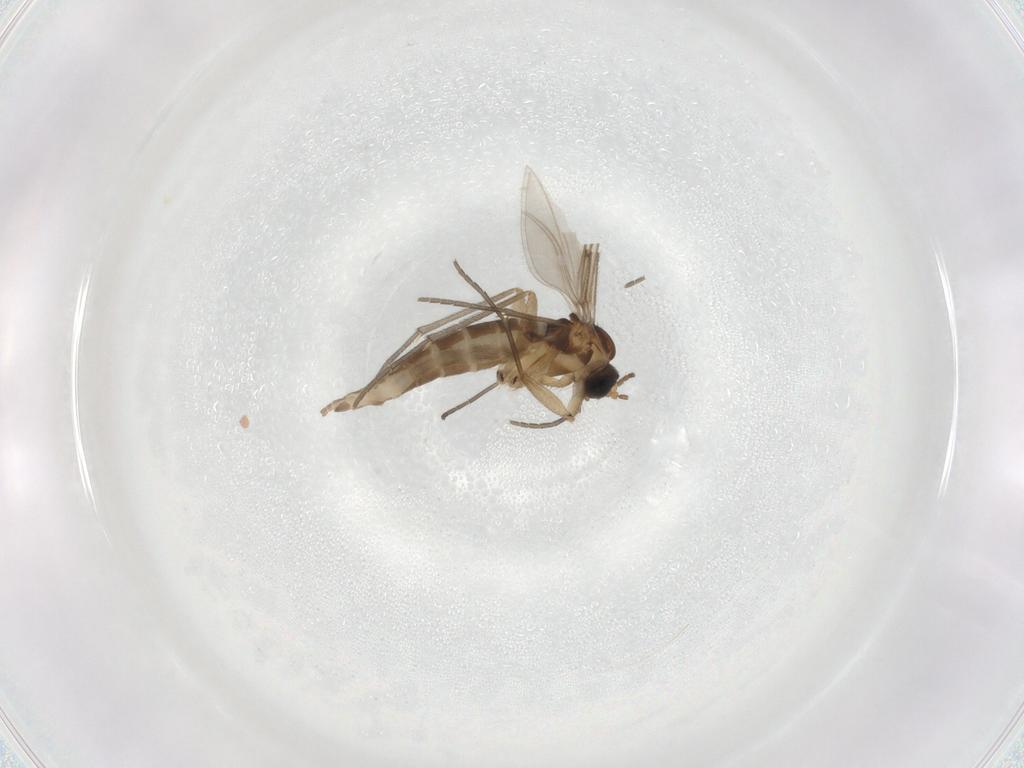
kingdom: Animalia
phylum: Arthropoda
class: Insecta
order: Diptera
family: Sciaridae
